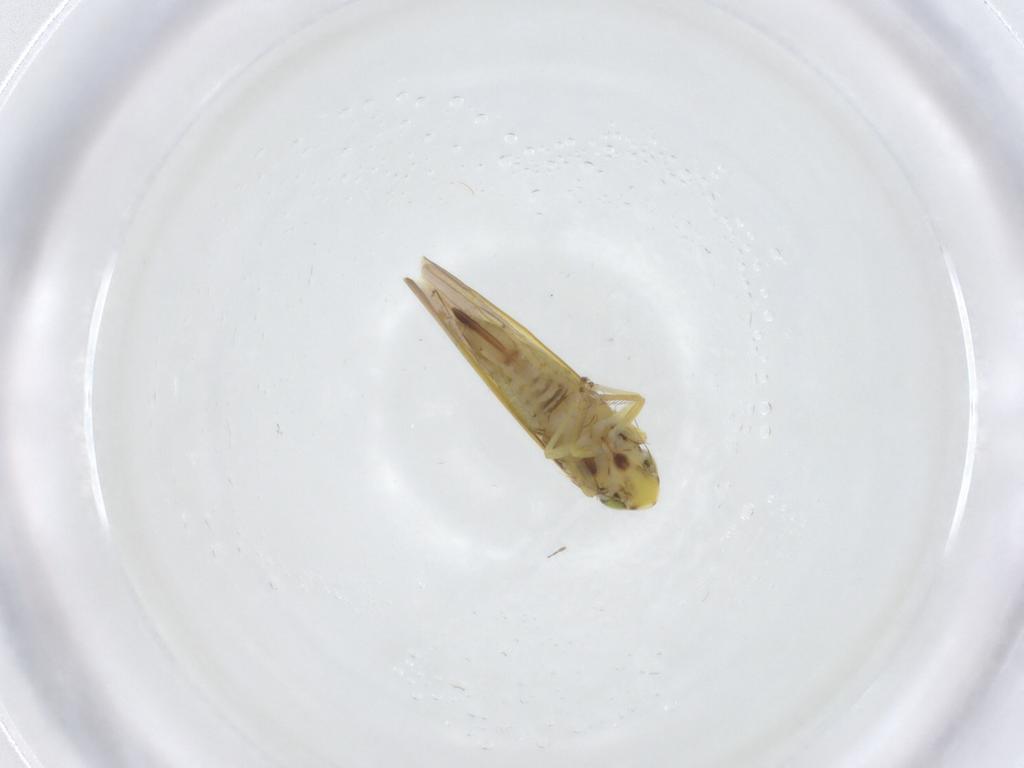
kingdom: Animalia
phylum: Arthropoda
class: Insecta
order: Hemiptera
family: Cicadellidae
